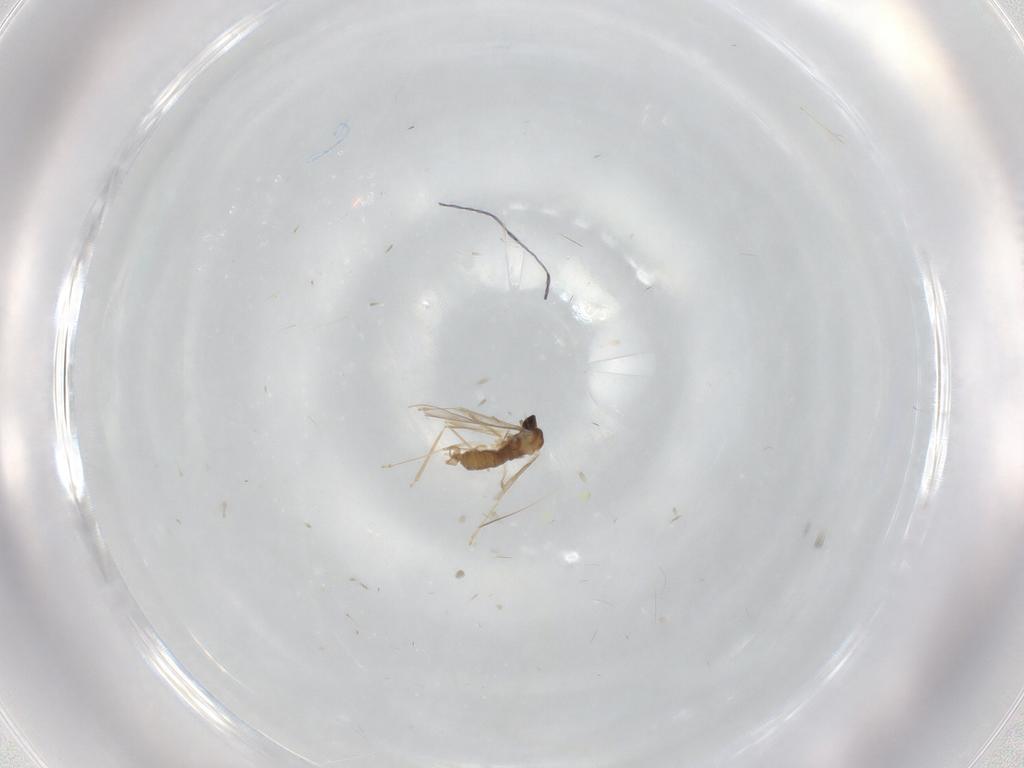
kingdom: Animalia
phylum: Arthropoda
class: Insecta
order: Diptera
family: Cecidomyiidae
